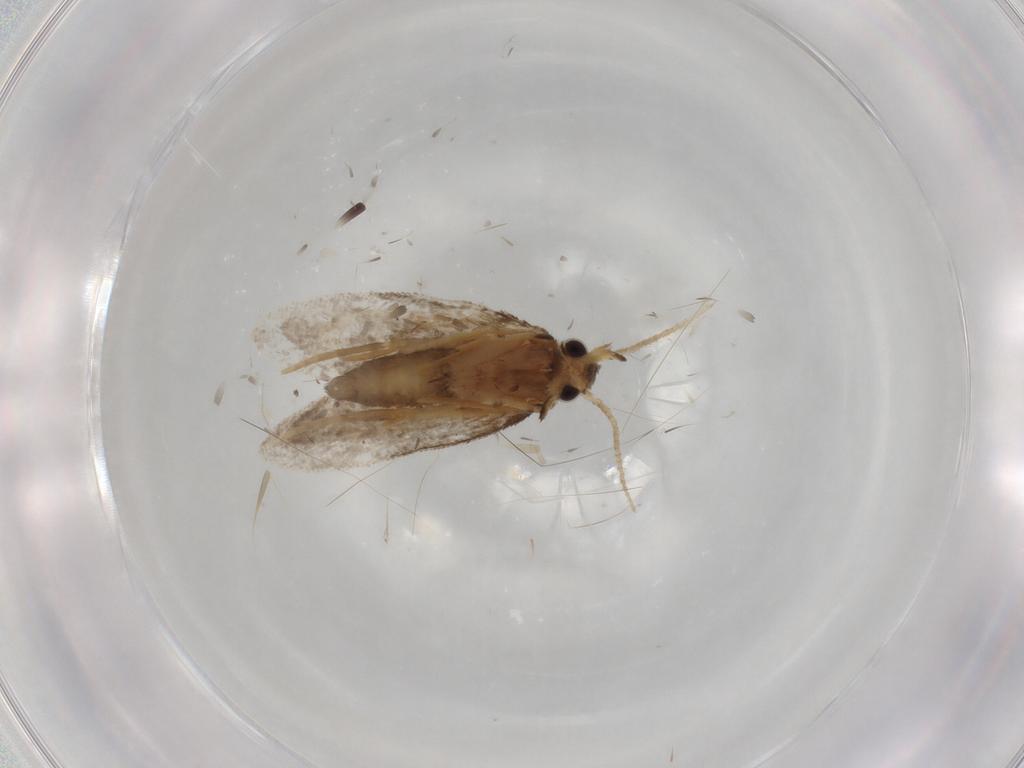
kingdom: Animalia
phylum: Arthropoda
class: Insecta
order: Lepidoptera
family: Psychidae
